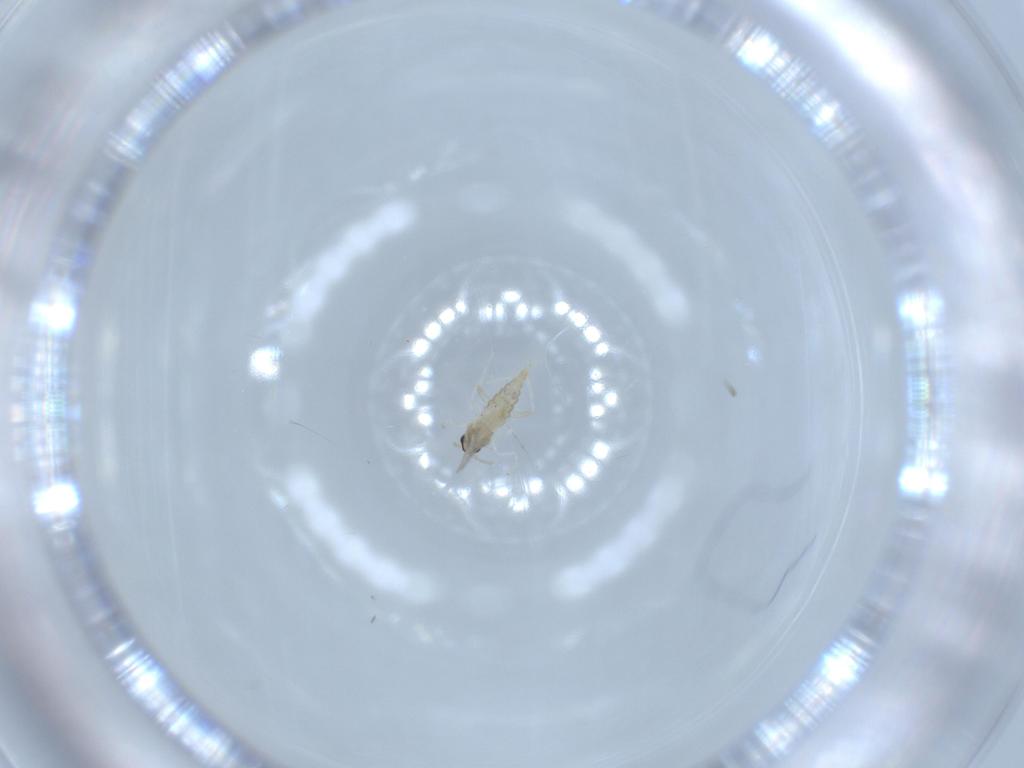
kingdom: Animalia
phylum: Arthropoda
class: Insecta
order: Diptera
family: Cecidomyiidae
